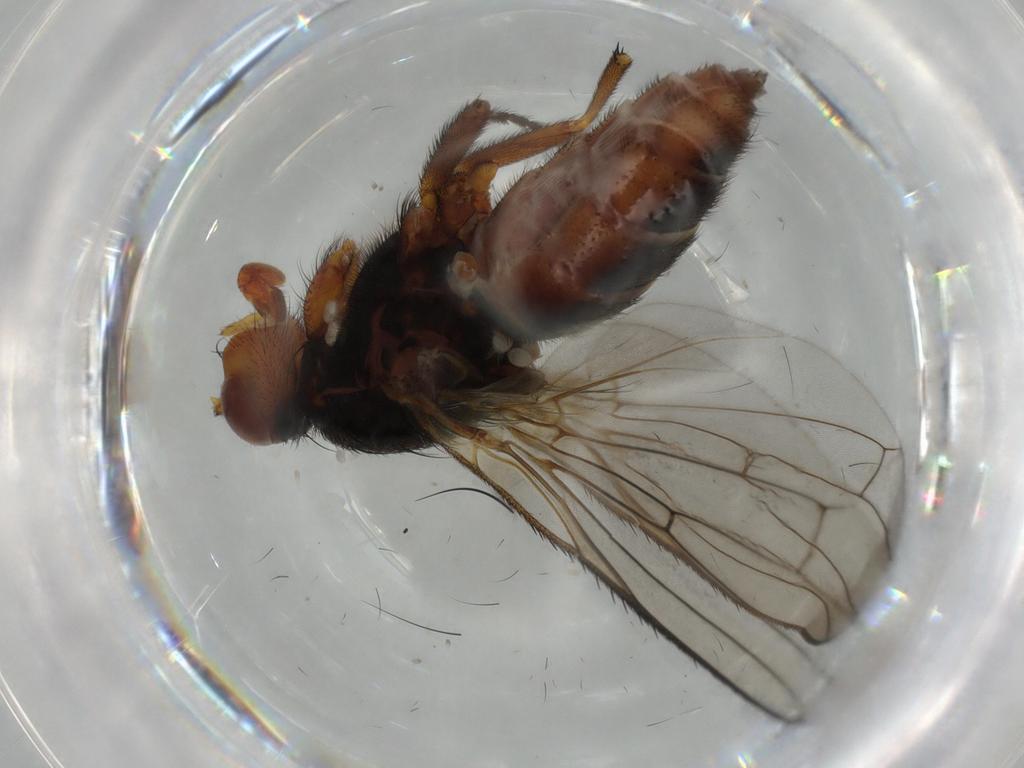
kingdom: Animalia
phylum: Arthropoda
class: Insecta
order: Diptera
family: Heleomyzidae
